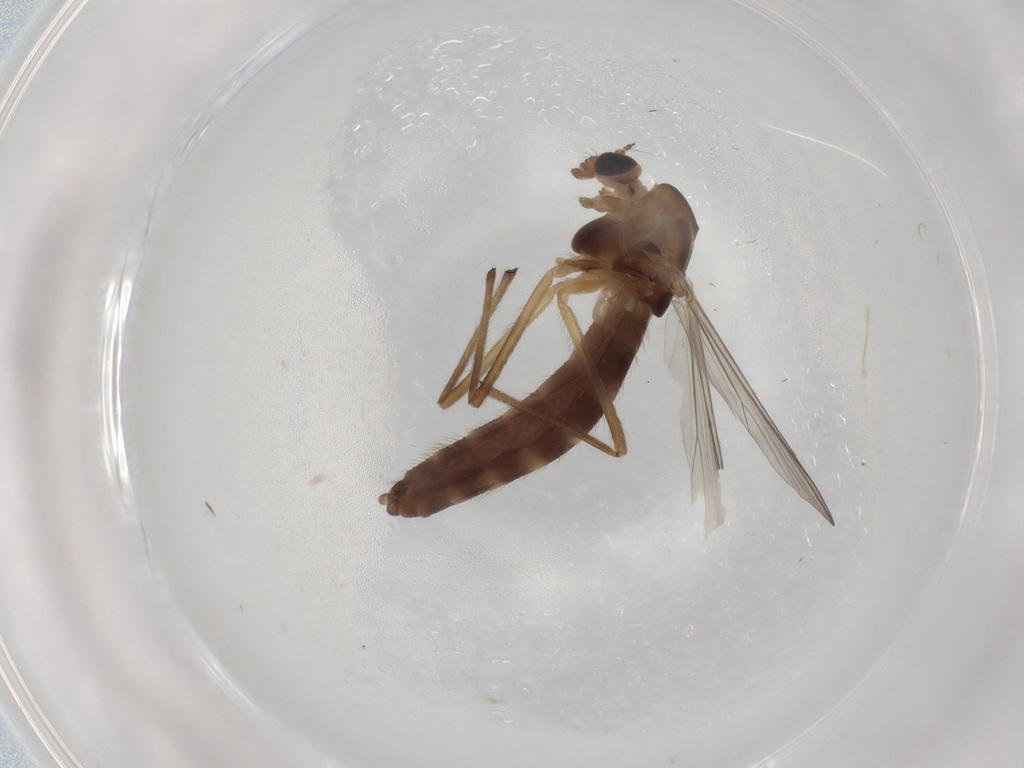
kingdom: Animalia
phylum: Arthropoda
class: Insecta
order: Diptera
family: Chironomidae
